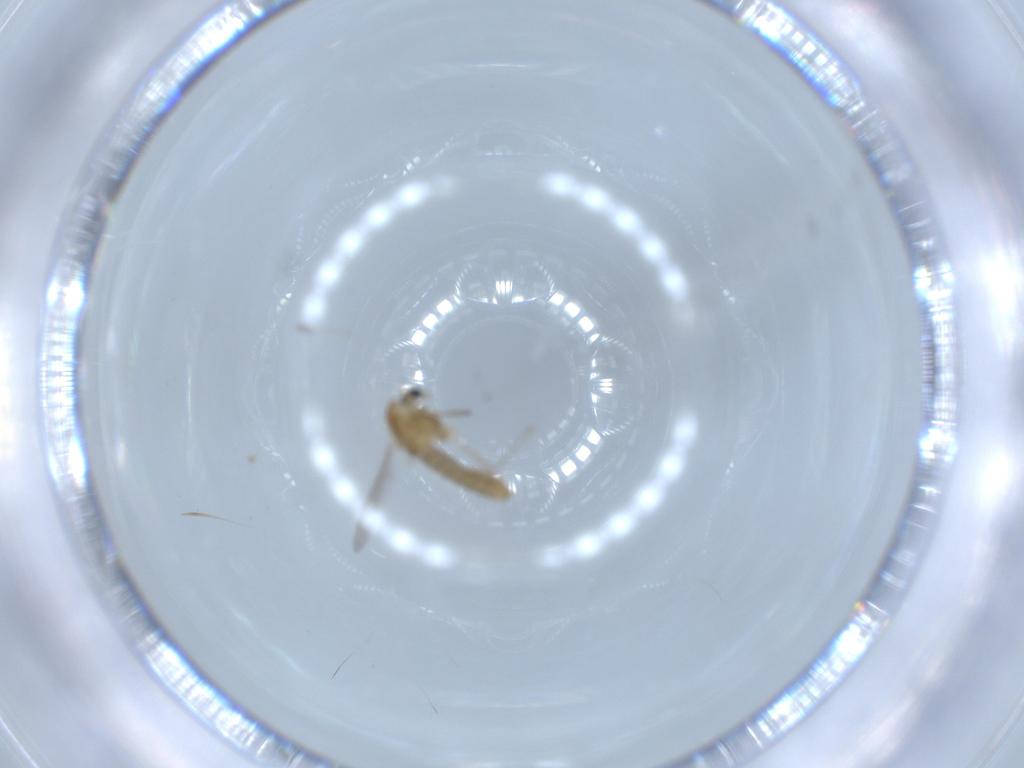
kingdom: Animalia
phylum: Arthropoda
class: Insecta
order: Diptera
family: Chironomidae
